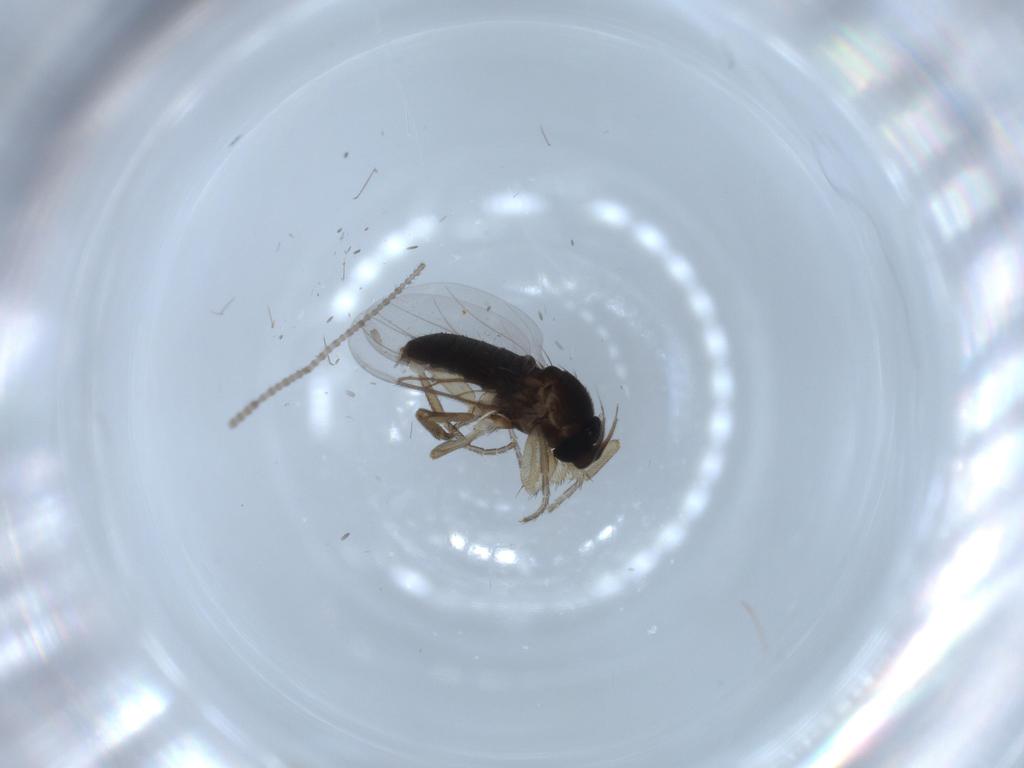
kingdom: Animalia
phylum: Arthropoda
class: Insecta
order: Diptera
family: Phoridae
